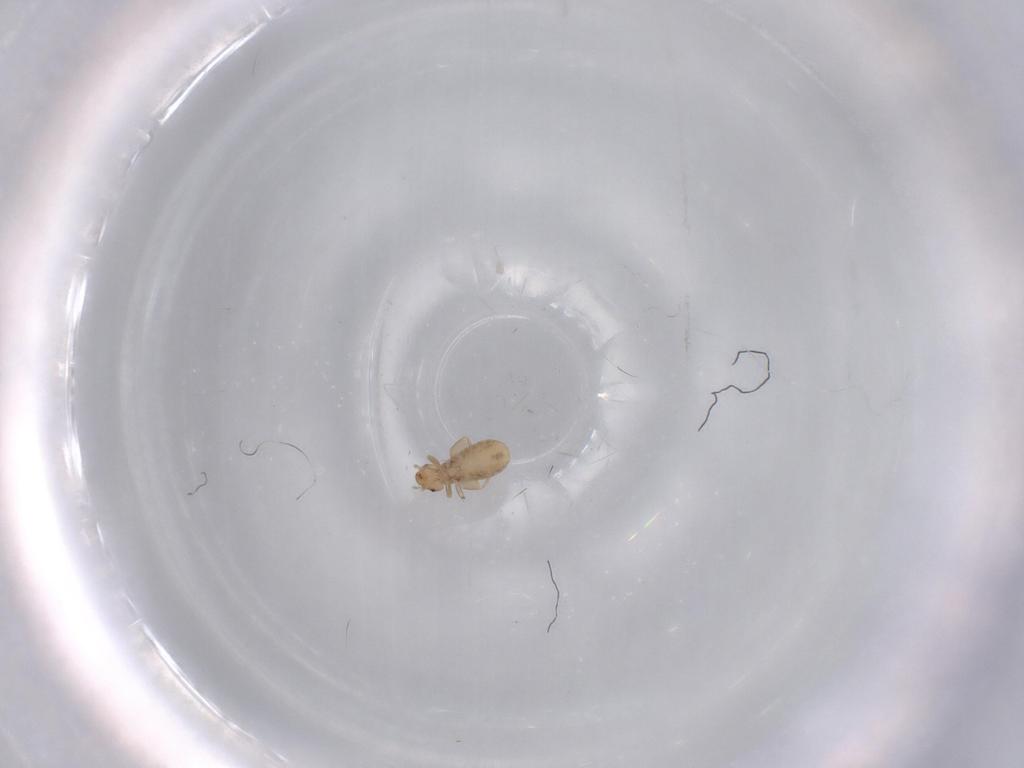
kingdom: Animalia
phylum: Arthropoda
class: Insecta
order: Psocodea
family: Liposcelididae
